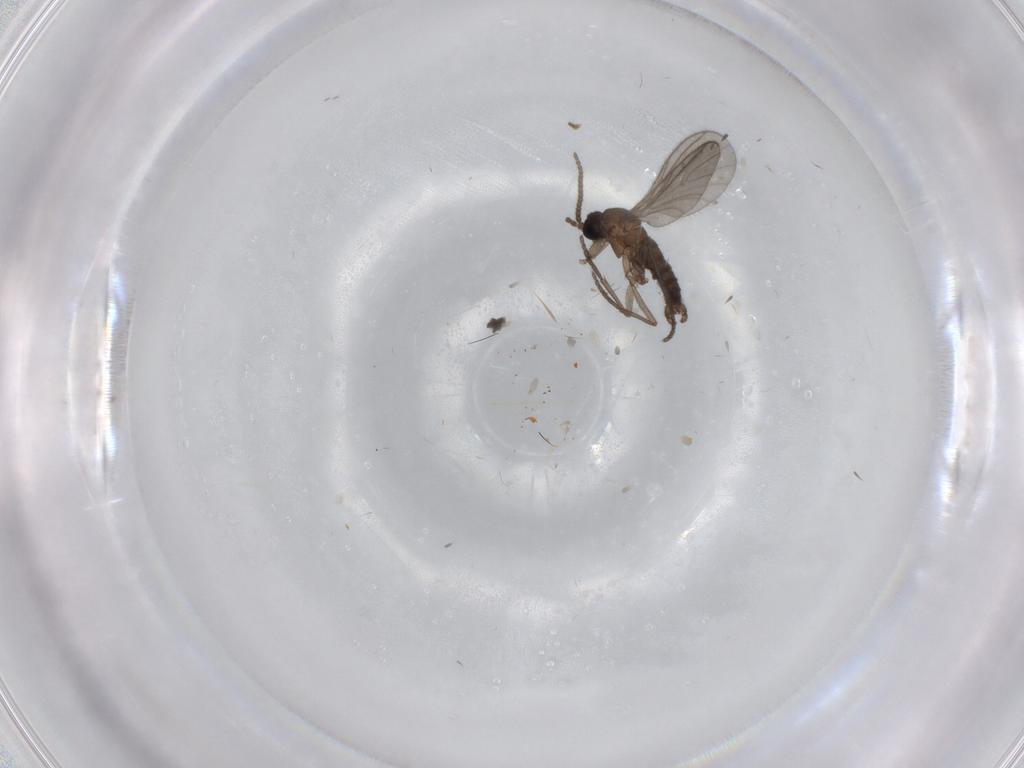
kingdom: Animalia
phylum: Arthropoda
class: Insecta
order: Diptera
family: Sciaridae
